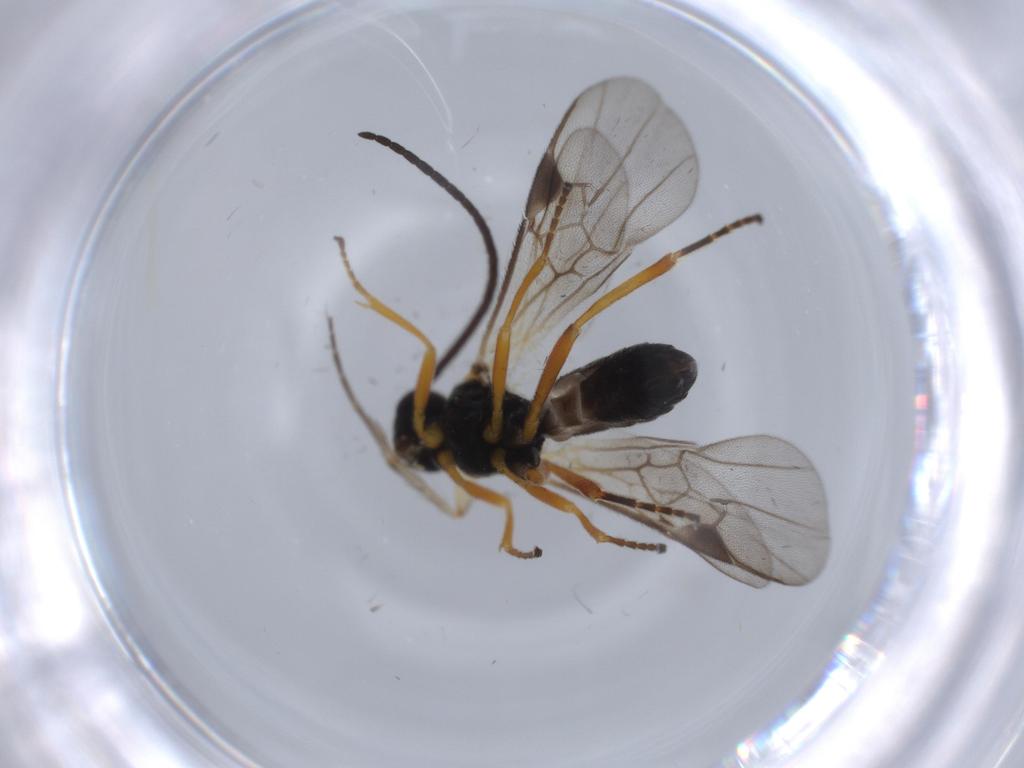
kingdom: Animalia
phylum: Arthropoda
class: Insecta
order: Hymenoptera
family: Braconidae
